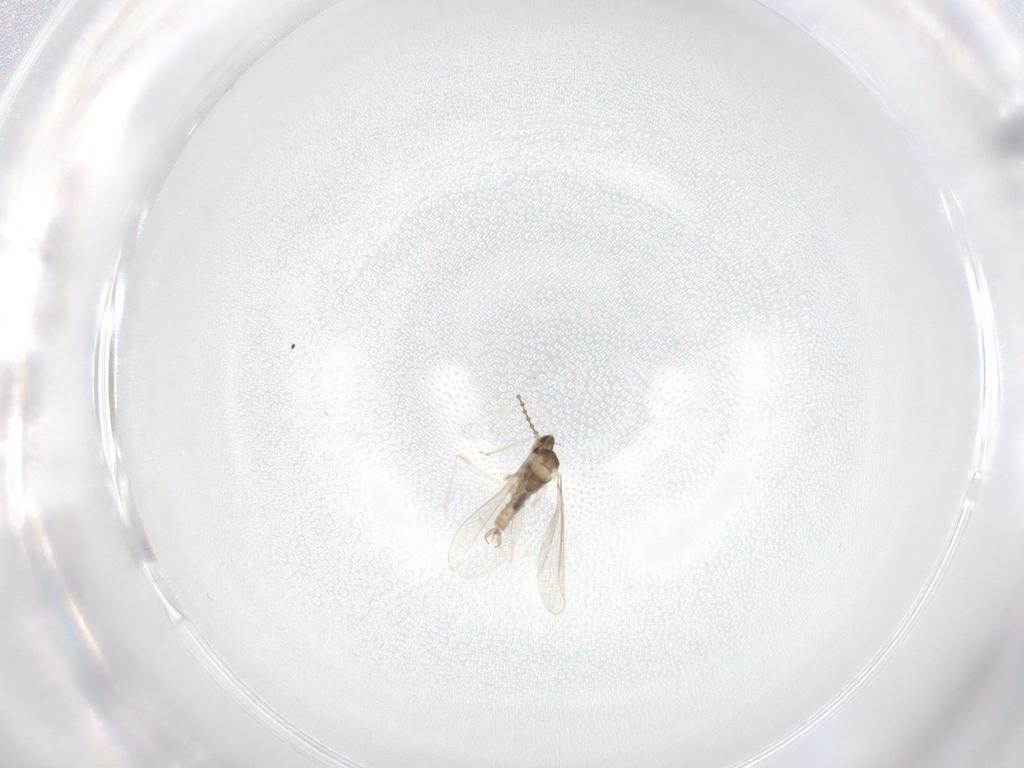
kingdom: Animalia
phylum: Arthropoda
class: Insecta
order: Diptera
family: Cecidomyiidae
